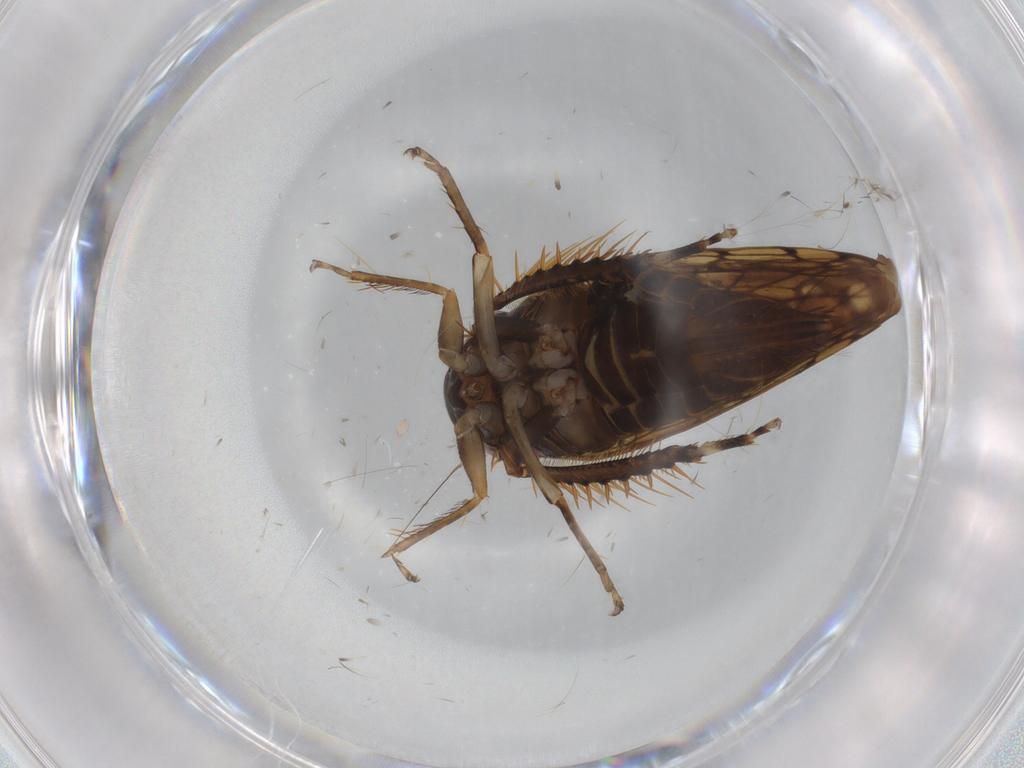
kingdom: Animalia
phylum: Arthropoda
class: Insecta
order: Hemiptera
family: Cicadellidae
